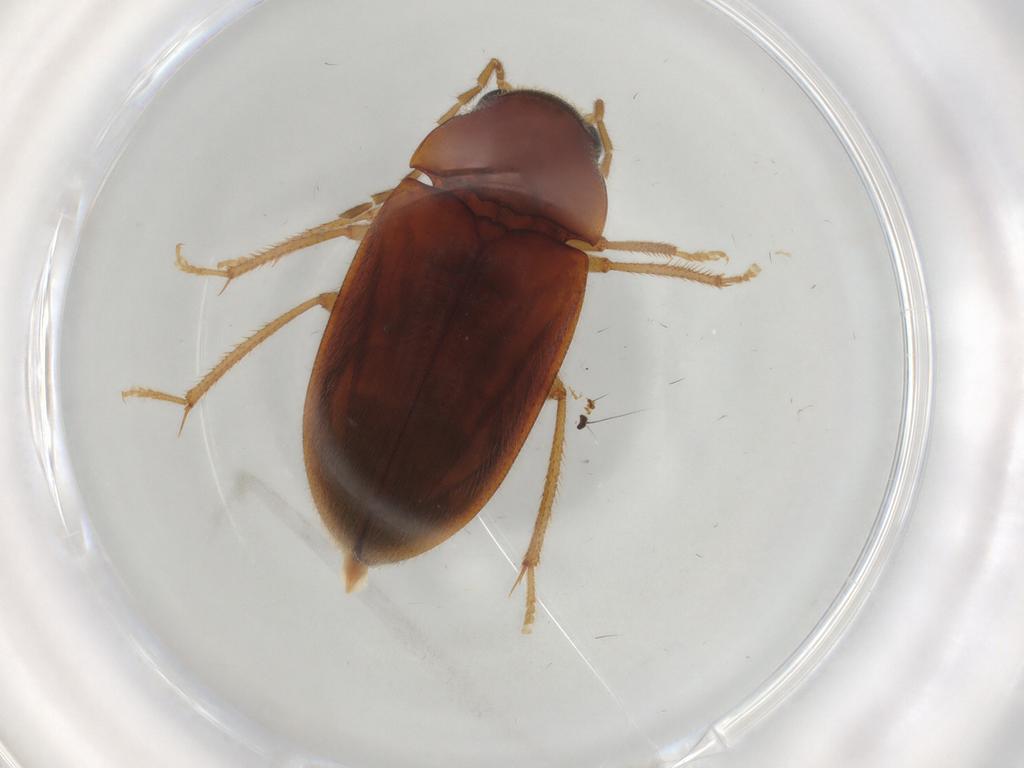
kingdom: Animalia
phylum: Arthropoda
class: Insecta
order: Coleoptera
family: Ptilodactylidae
